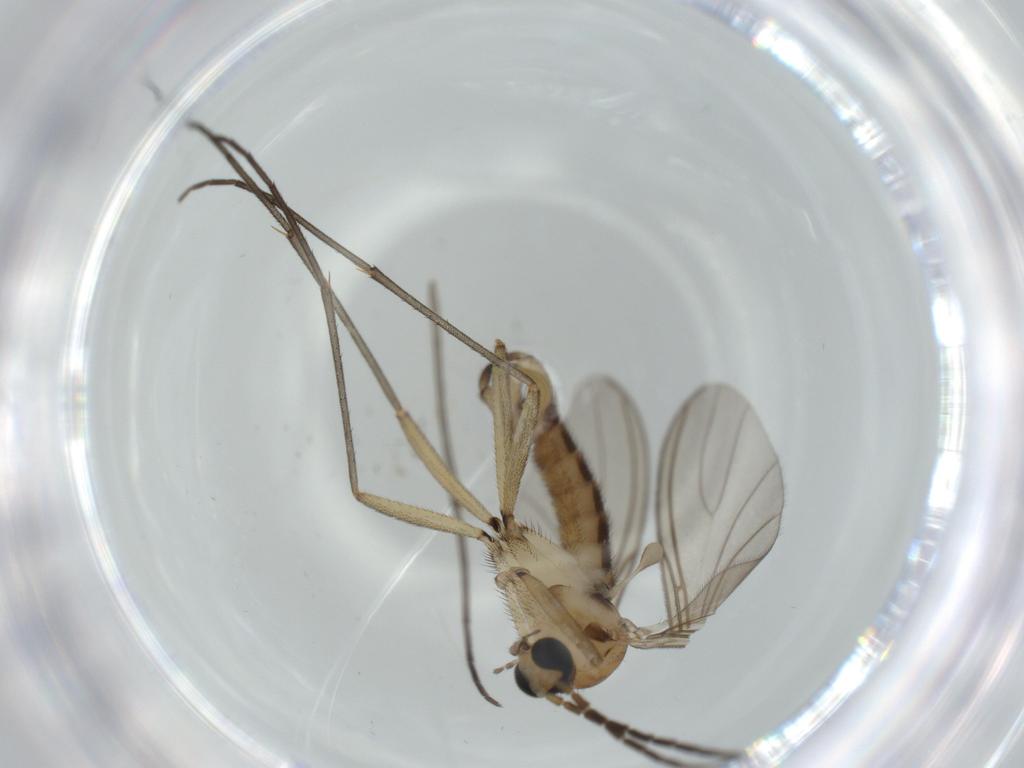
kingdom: Animalia
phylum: Arthropoda
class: Insecta
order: Diptera
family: Sciaridae
